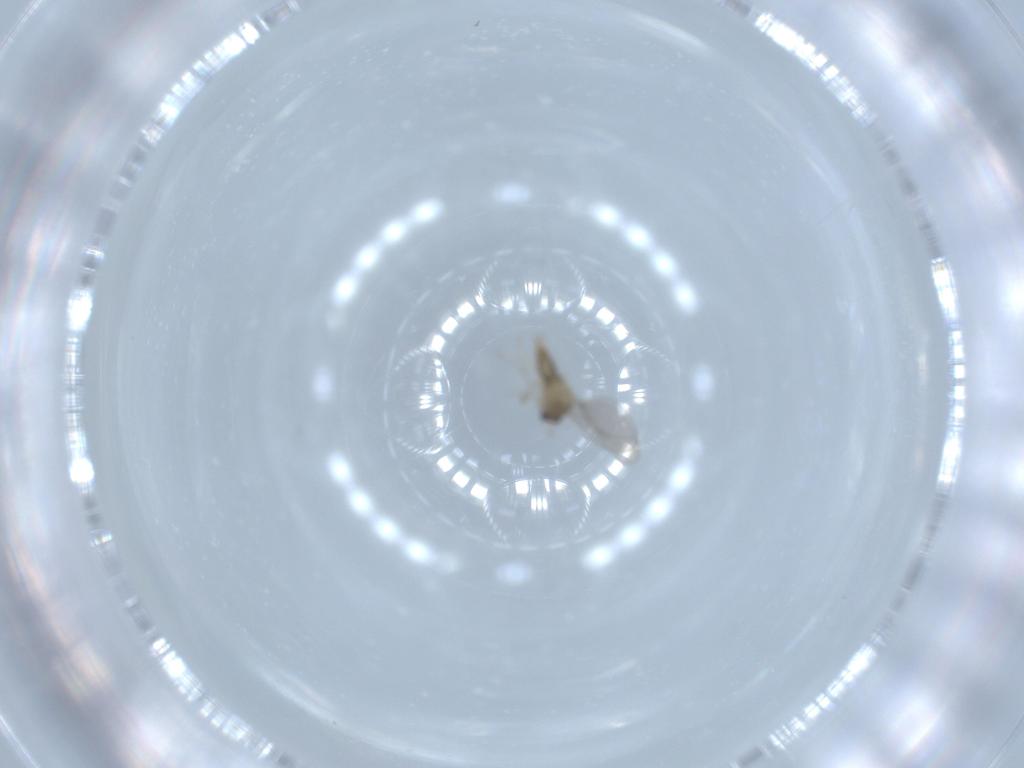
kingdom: Animalia
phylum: Arthropoda
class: Insecta
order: Diptera
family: Cecidomyiidae
